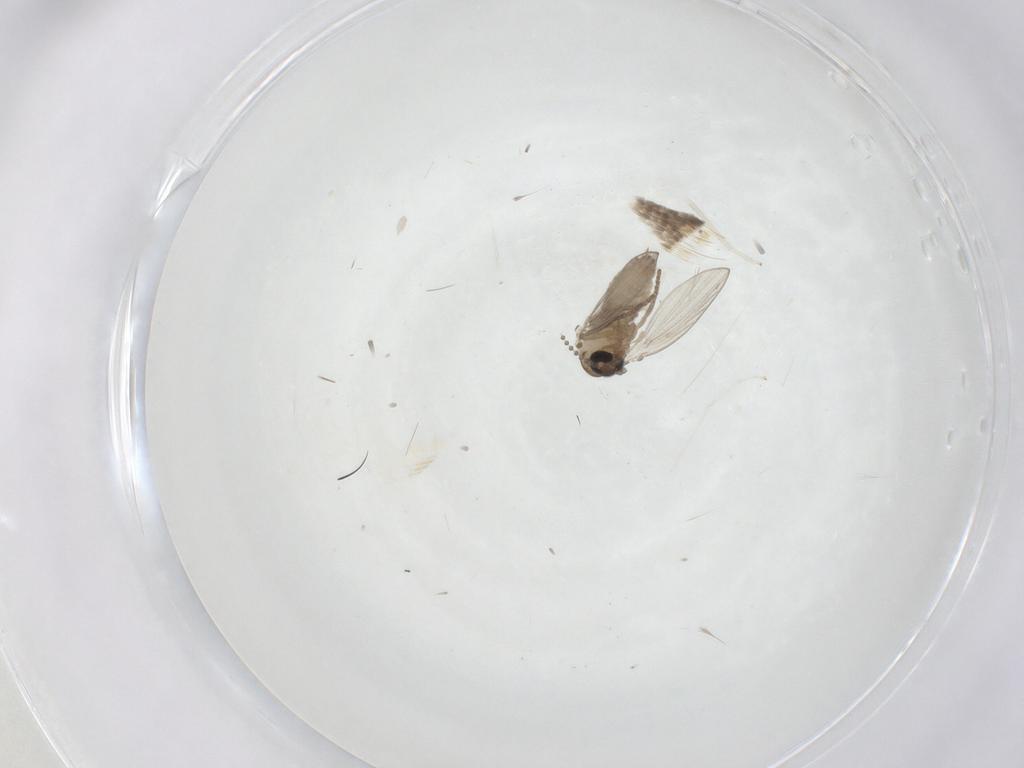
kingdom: Animalia
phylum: Arthropoda
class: Insecta
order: Diptera
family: Psychodidae
